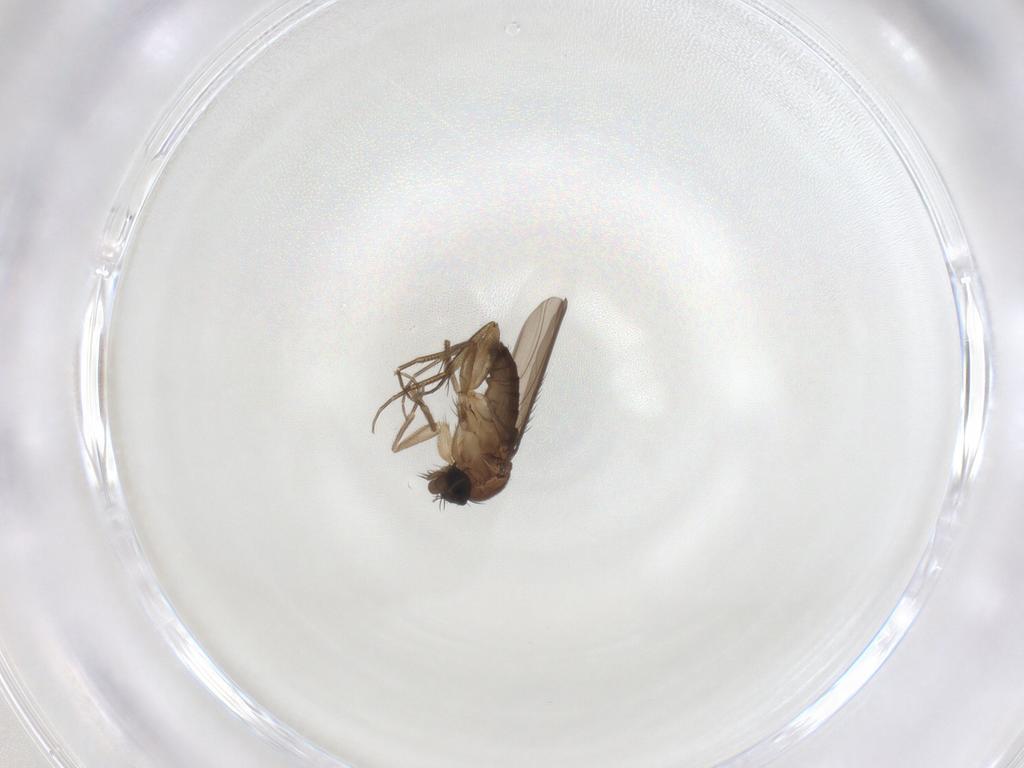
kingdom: Animalia
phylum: Arthropoda
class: Insecta
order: Diptera
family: Phoridae
